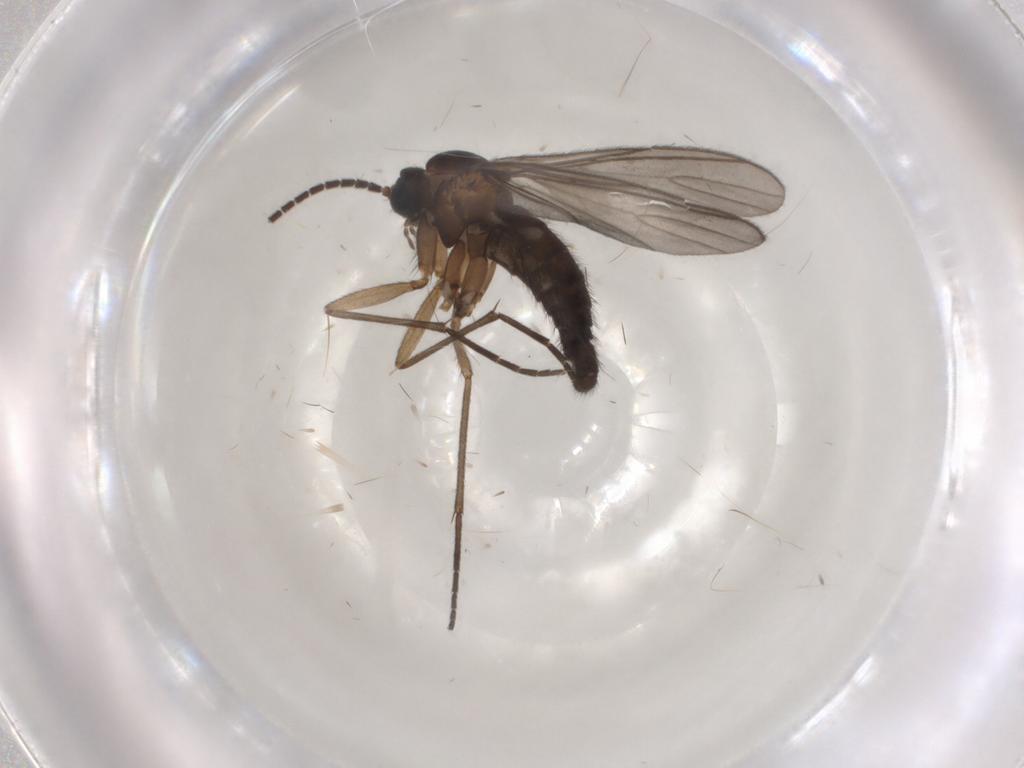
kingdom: Animalia
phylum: Arthropoda
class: Insecta
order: Diptera
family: Sciaridae
